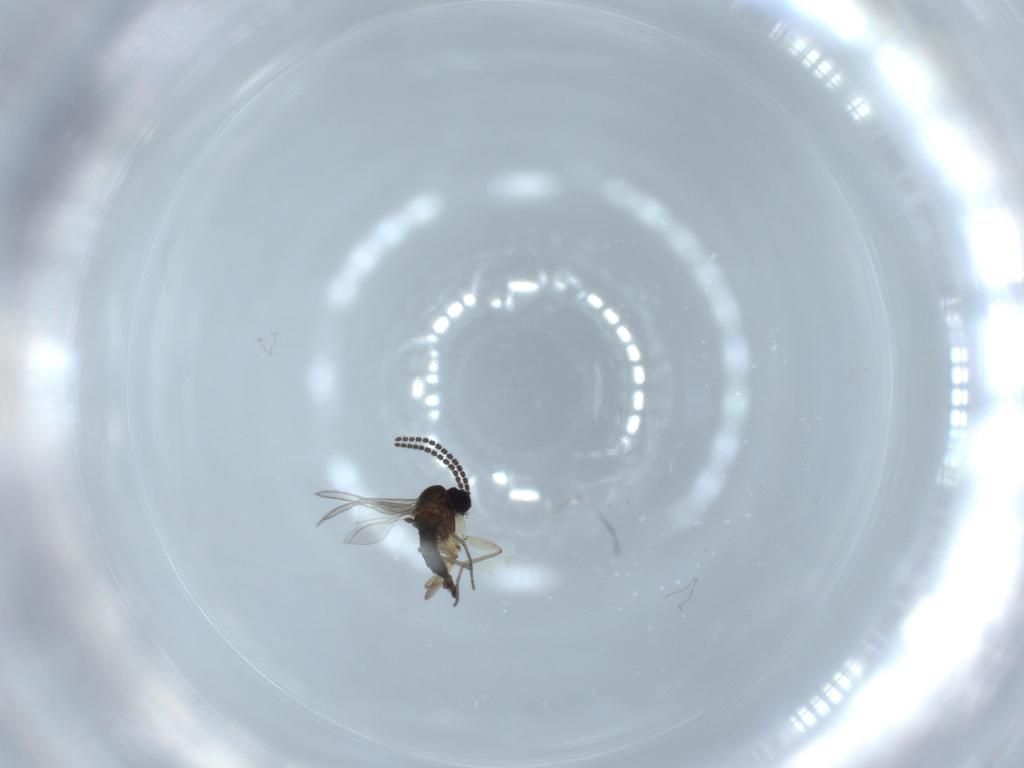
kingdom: Animalia
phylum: Arthropoda
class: Insecta
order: Diptera
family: Sciaridae
